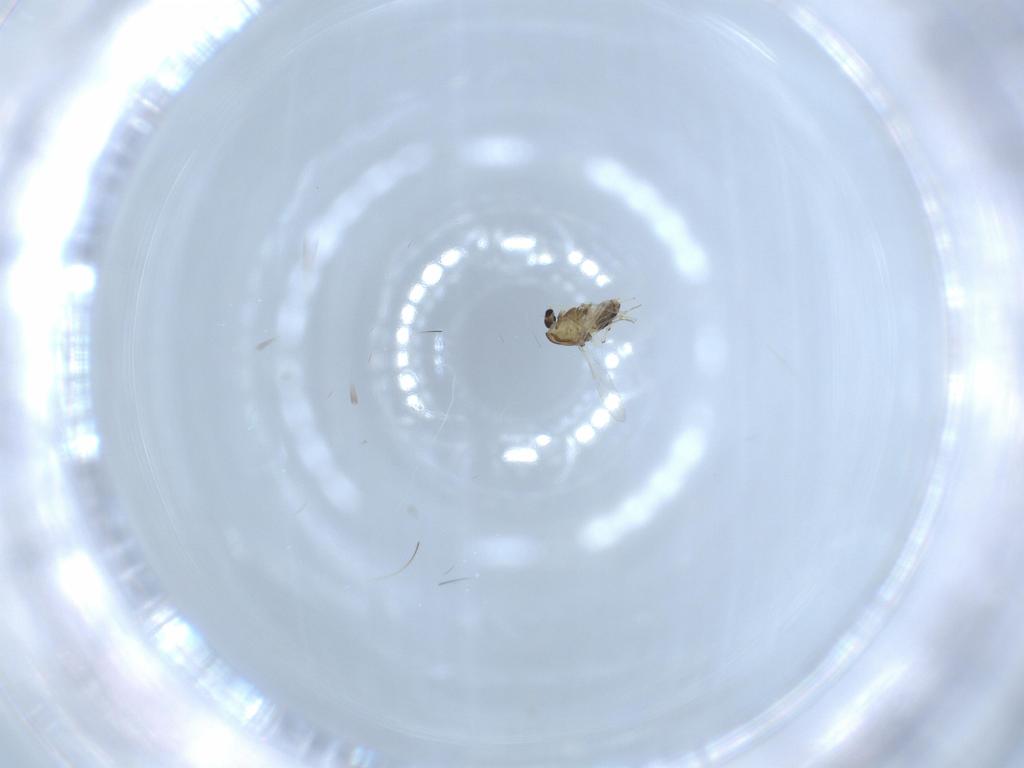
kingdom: Animalia
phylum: Arthropoda
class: Insecta
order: Diptera
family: Chironomidae
